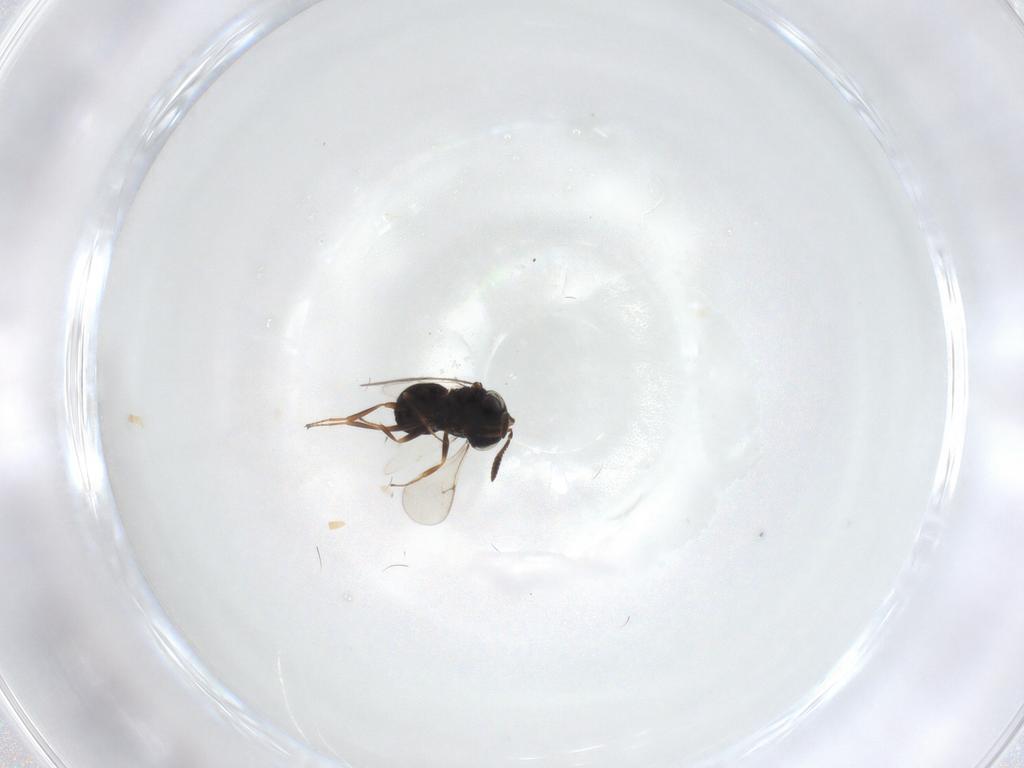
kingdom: Animalia
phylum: Arthropoda
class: Insecta
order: Hymenoptera
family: Scelionidae
